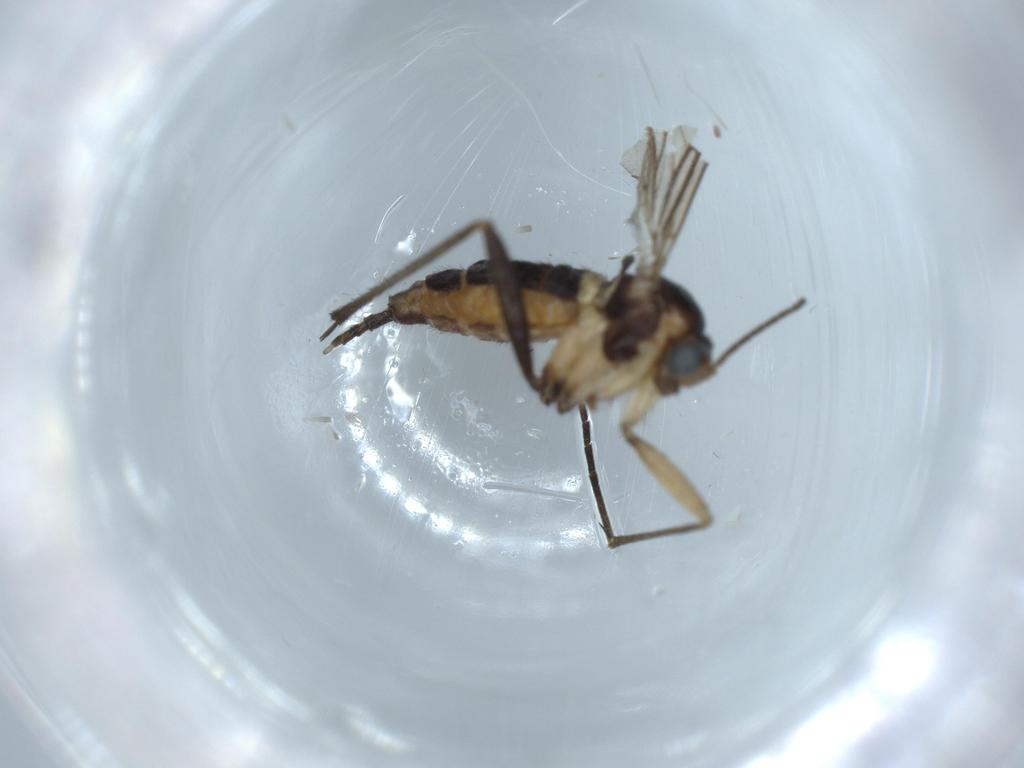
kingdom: Animalia
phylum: Arthropoda
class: Insecta
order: Diptera
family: Sciaridae
